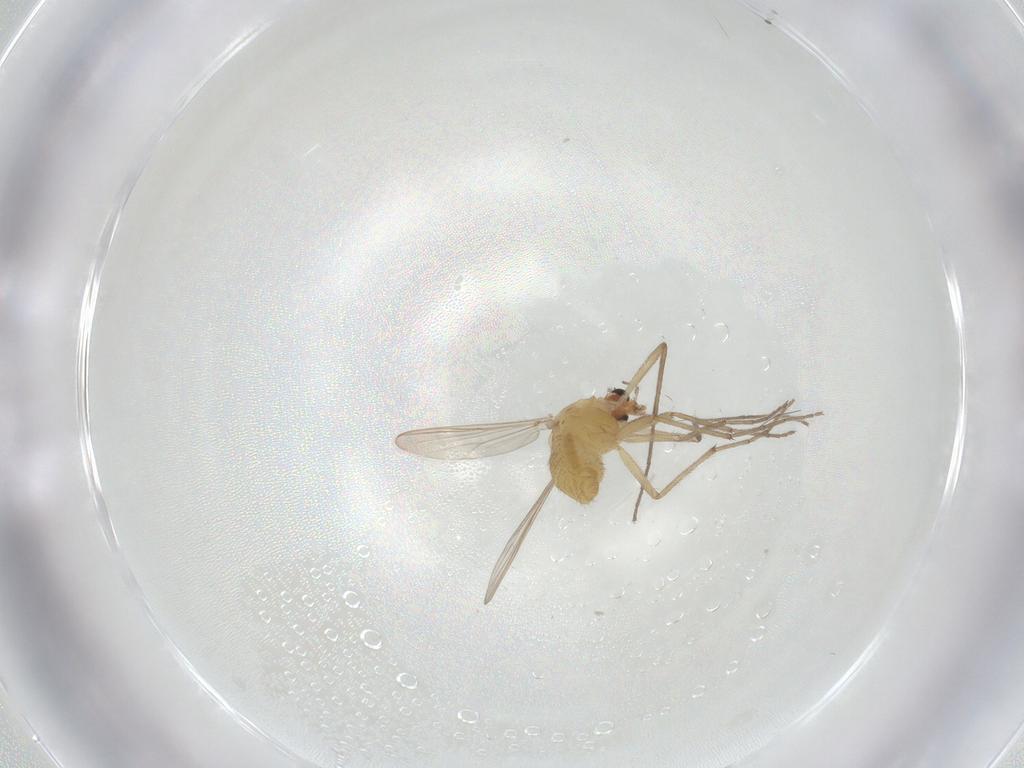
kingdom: Animalia
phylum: Arthropoda
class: Insecta
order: Diptera
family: Chironomidae
